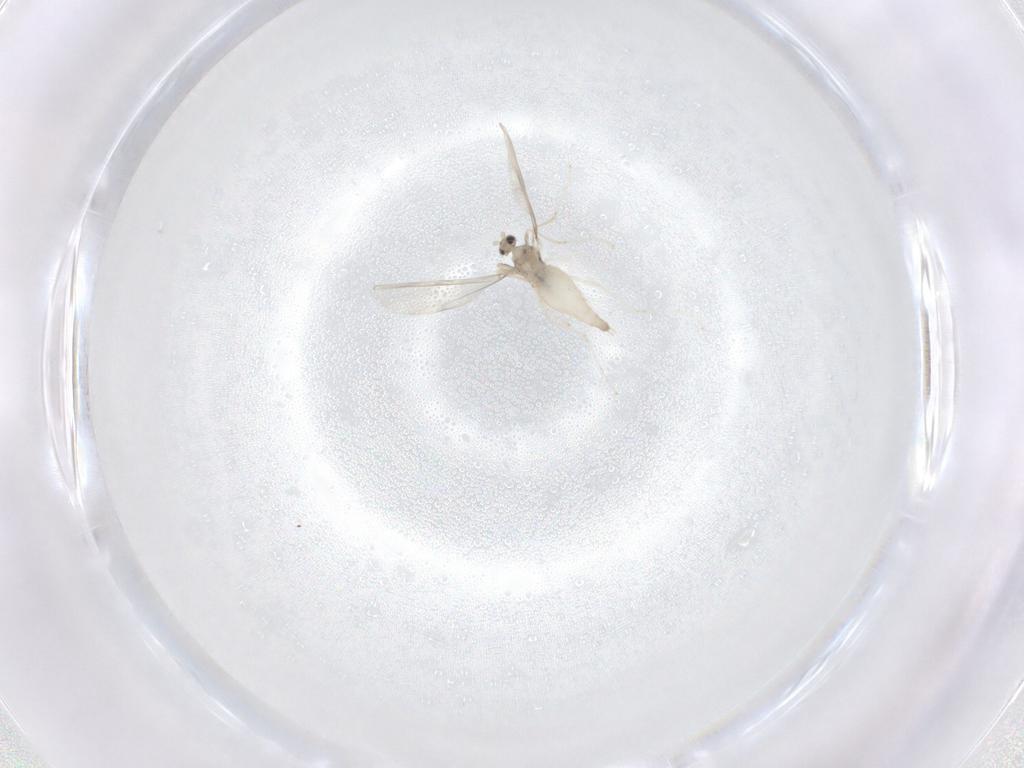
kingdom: Animalia
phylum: Arthropoda
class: Insecta
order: Diptera
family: Cecidomyiidae
